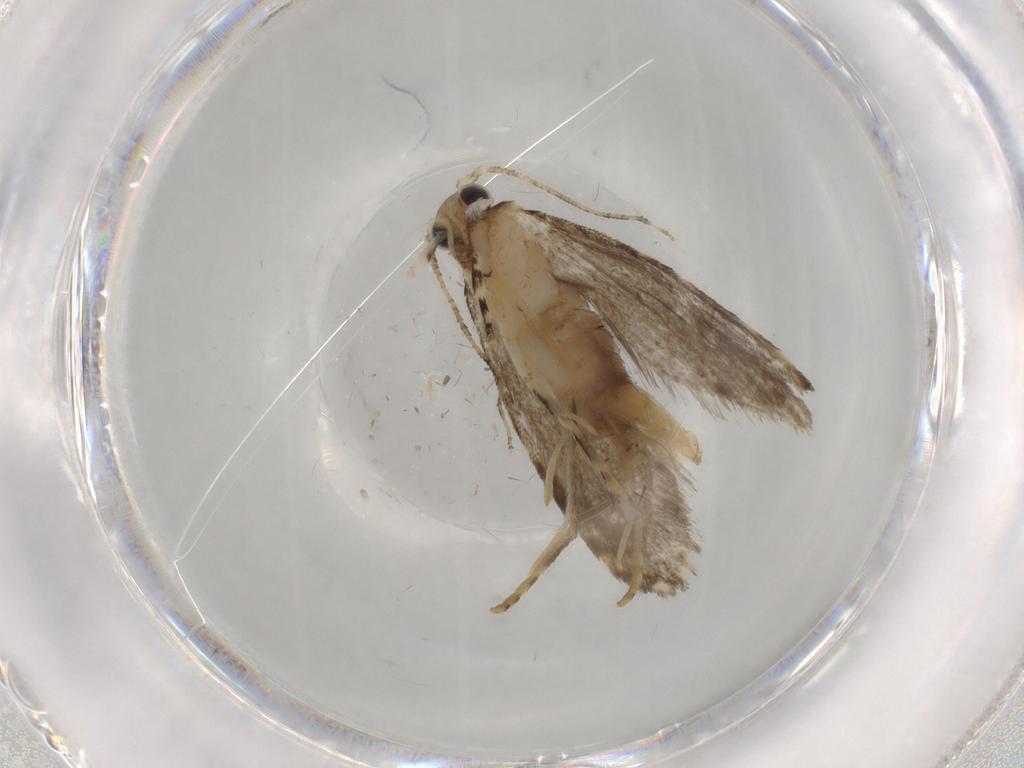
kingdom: Animalia
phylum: Arthropoda
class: Insecta
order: Lepidoptera
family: Tineidae
